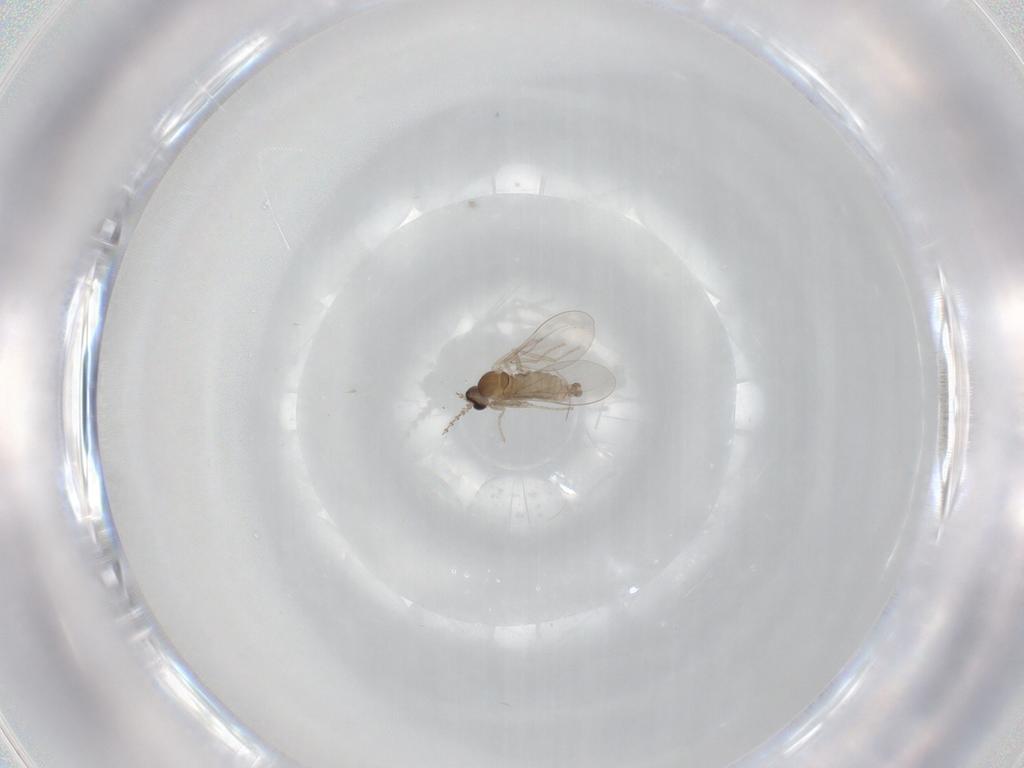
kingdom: Animalia
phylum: Arthropoda
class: Insecta
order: Diptera
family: Cecidomyiidae
